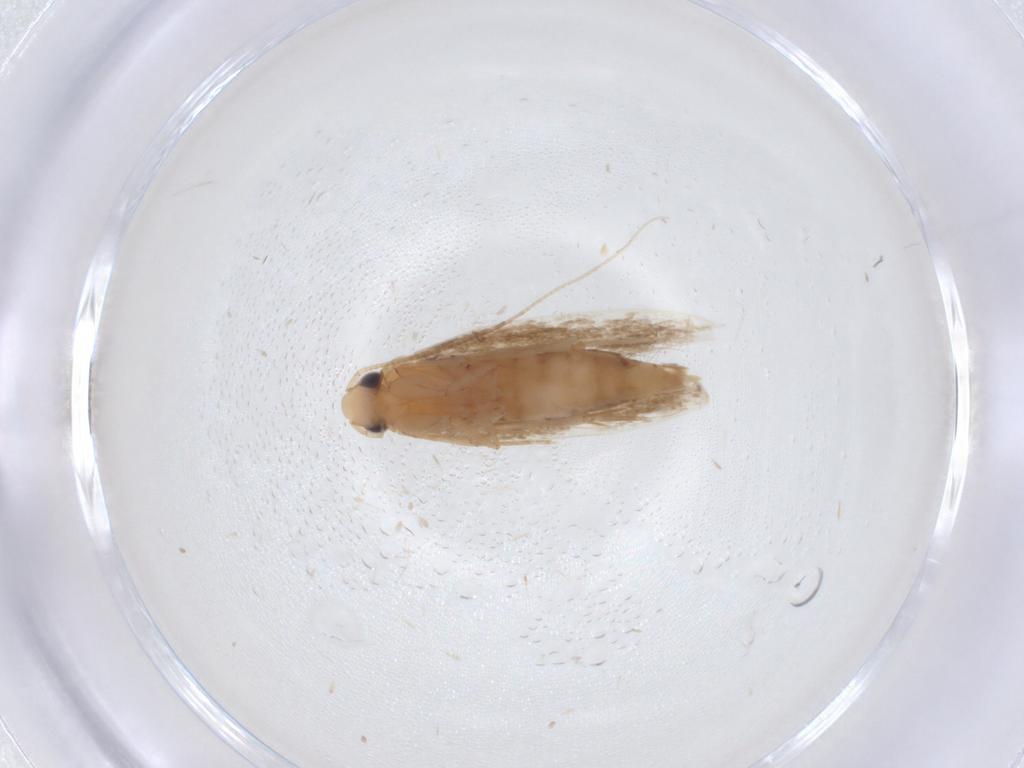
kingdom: Animalia
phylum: Arthropoda
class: Insecta
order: Lepidoptera
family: Tineidae
